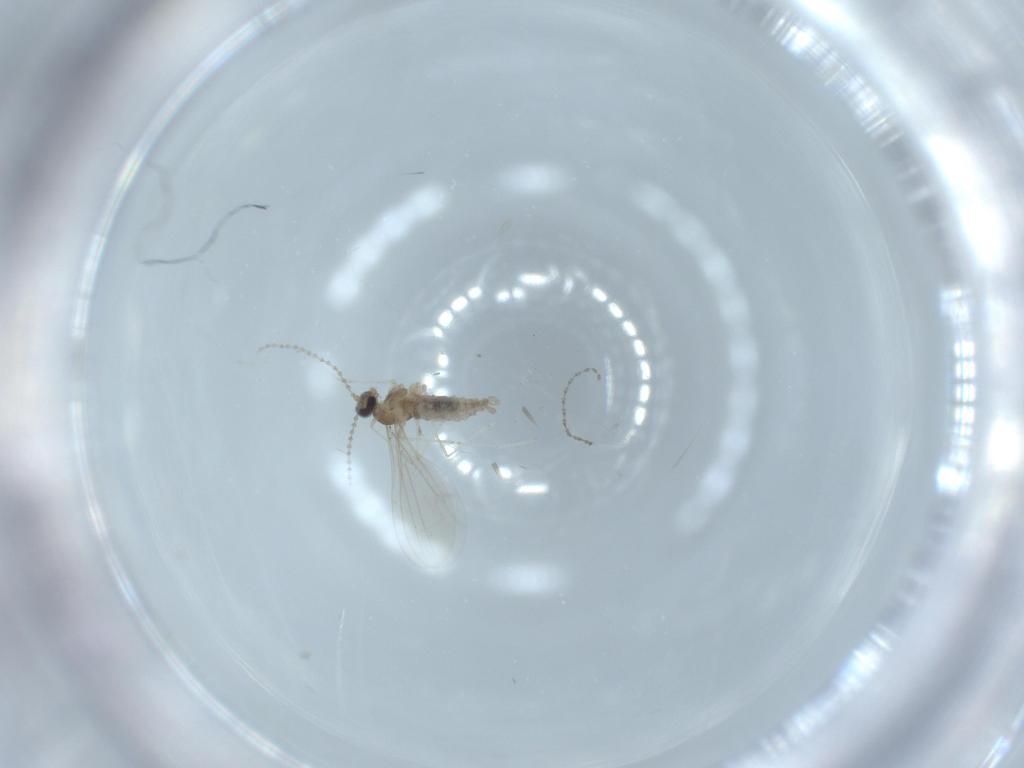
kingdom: Animalia
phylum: Arthropoda
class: Insecta
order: Diptera
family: Cecidomyiidae
